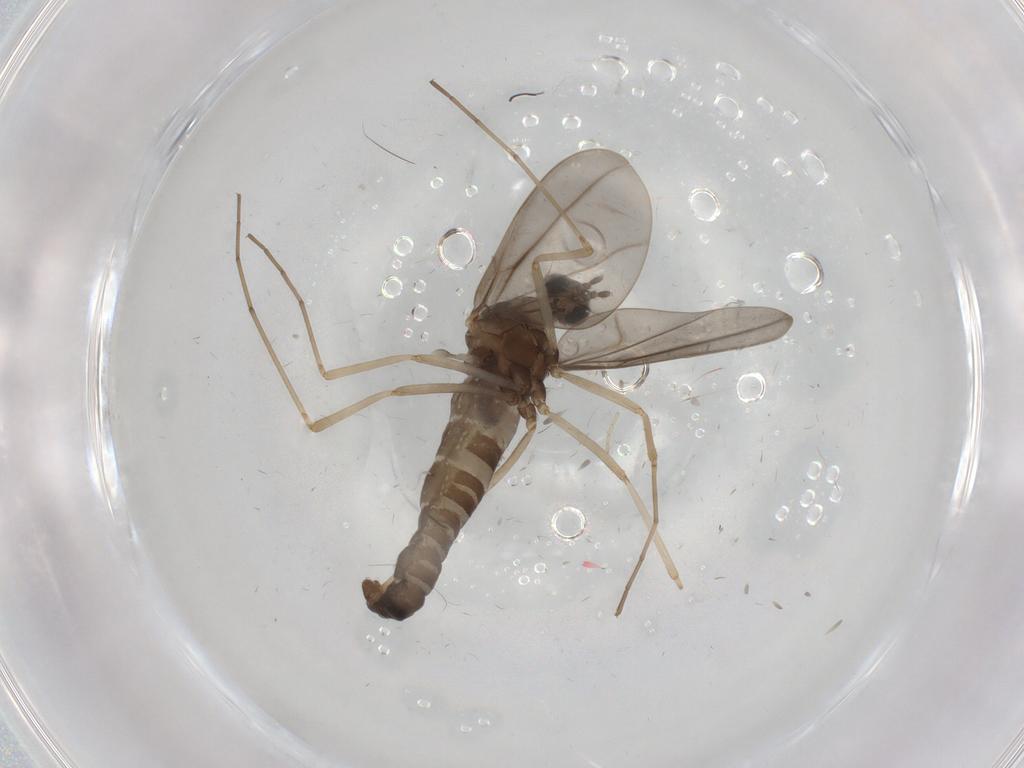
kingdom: Animalia
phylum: Arthropoda
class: Insecta
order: Diptera
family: Cecidomyiidae
